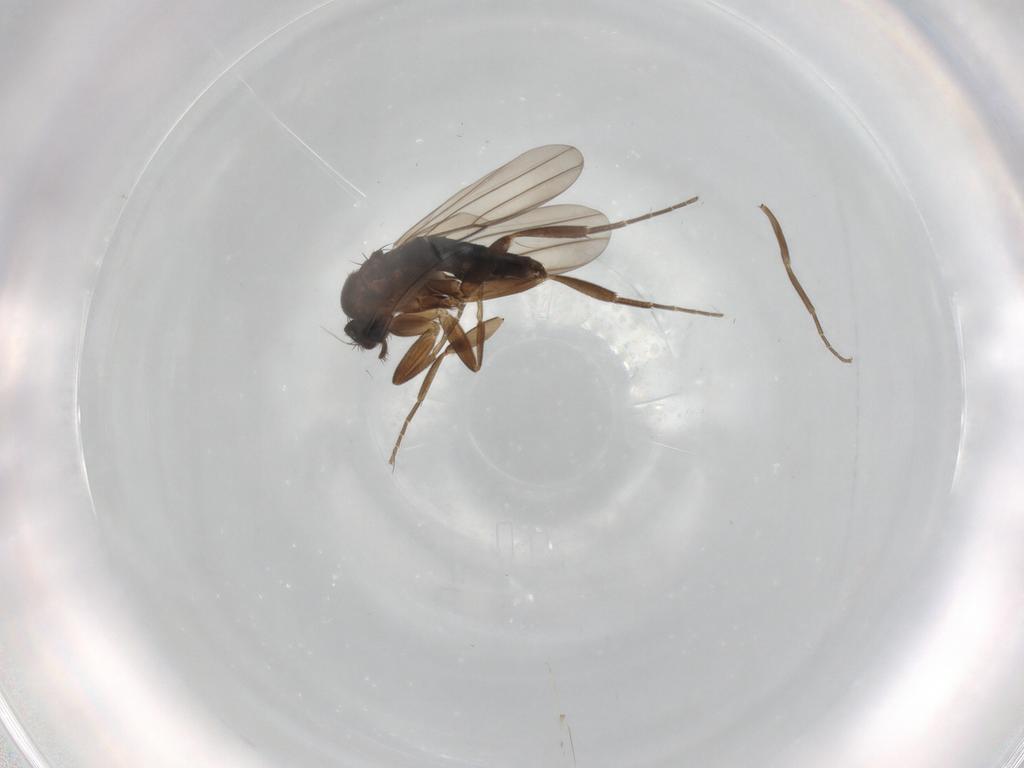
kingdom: Animalia
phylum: Arthropoda
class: Insecta
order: Diptera
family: Phoridae
